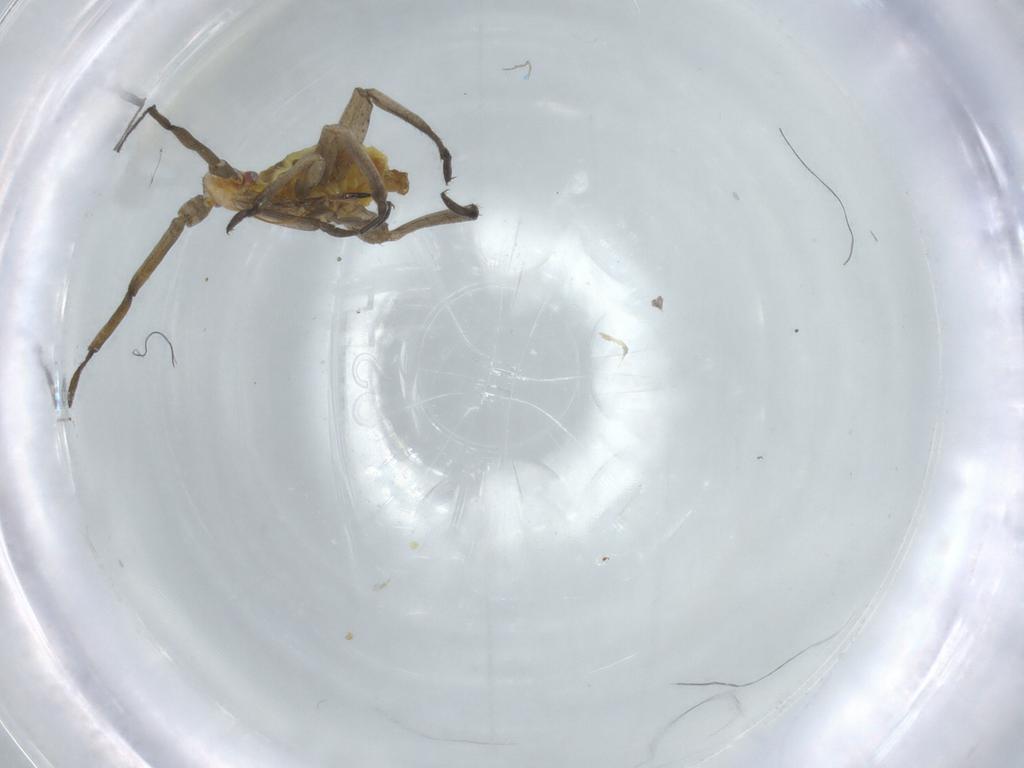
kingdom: Animalia
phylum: Arthropoda
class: Insecta
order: Hemiptera
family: Miridae
